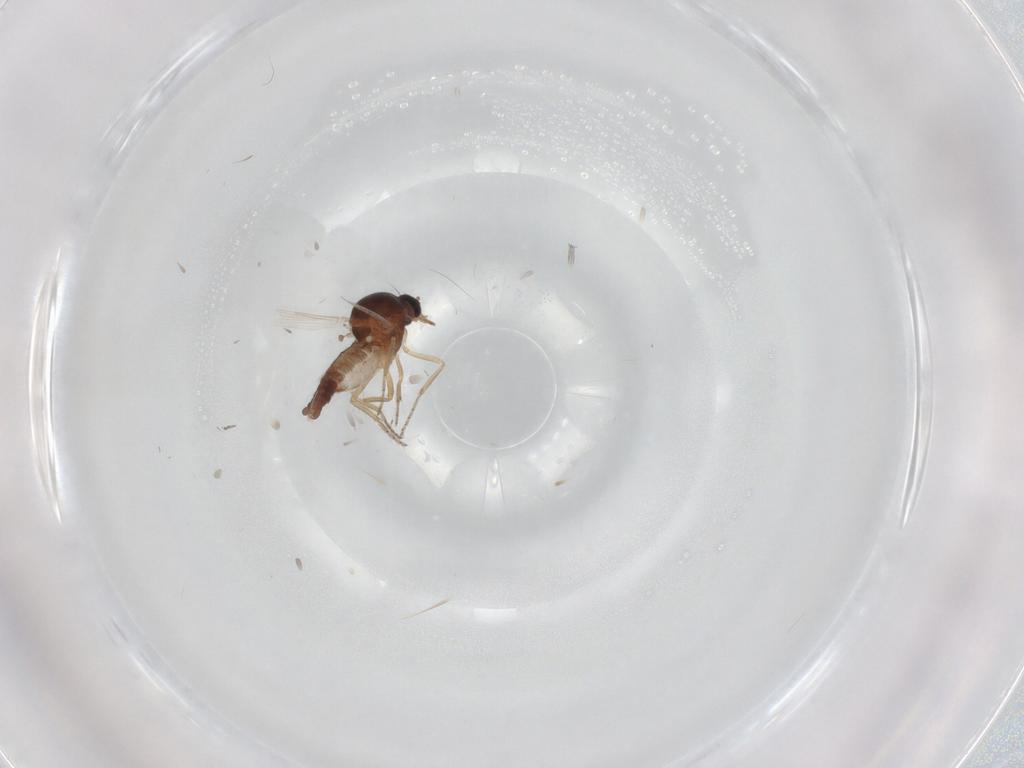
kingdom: Animalia
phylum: Arthropoda
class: Insecta
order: Diptera
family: Ceratopogonidae
